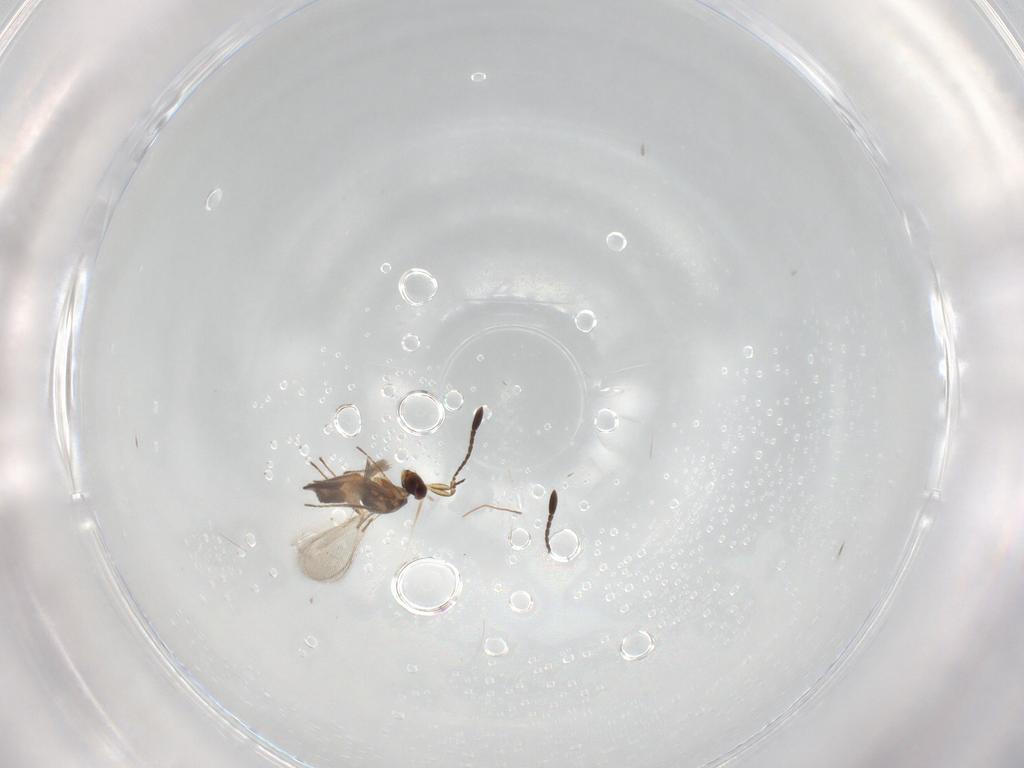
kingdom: Animalia
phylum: Arthropoda
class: Insecta
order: Hymenoptera
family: Mymaridae
